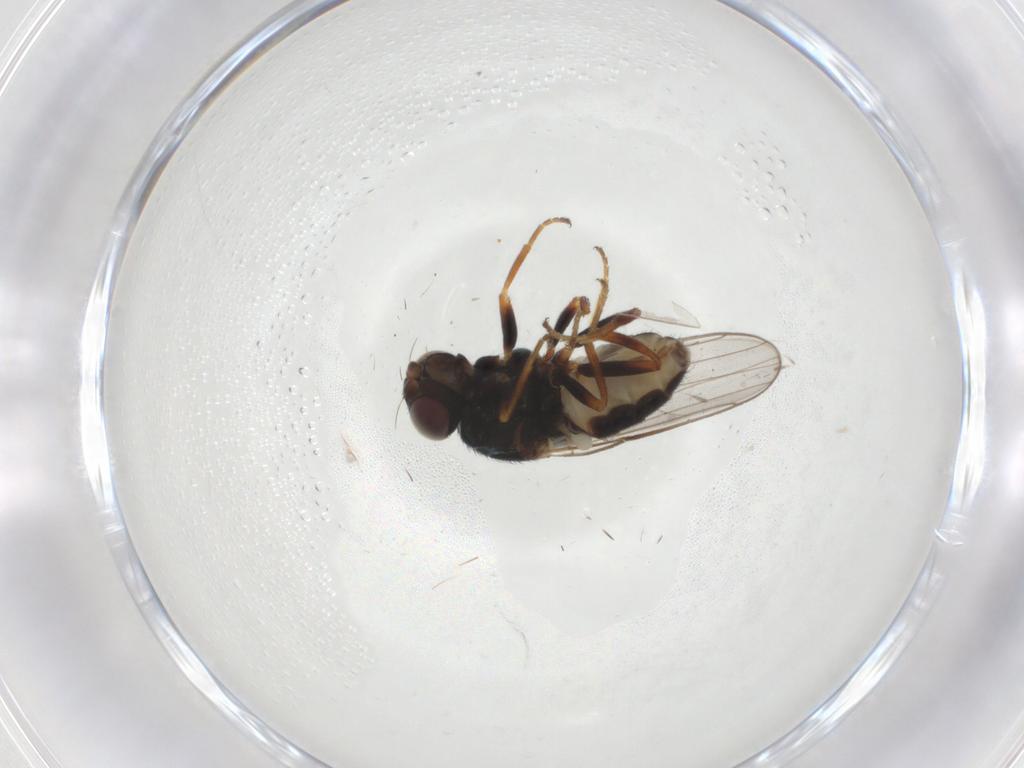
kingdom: Animalia
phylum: Arthropoda
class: Insecta
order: Diptera
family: Chloropidae
